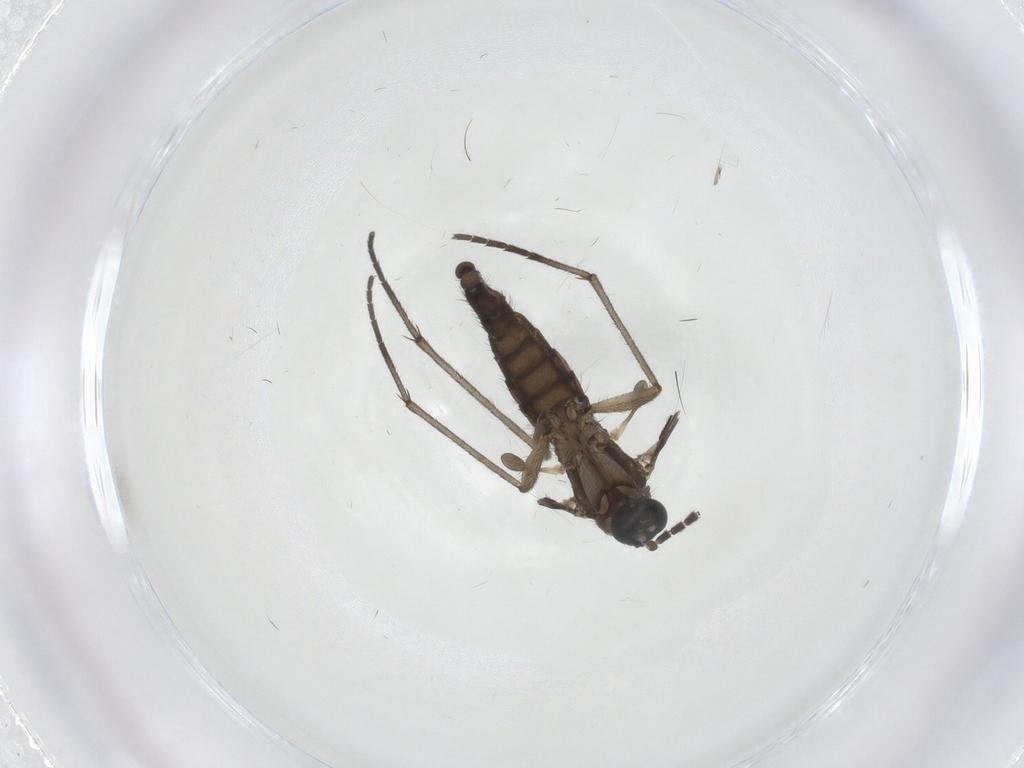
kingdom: Animalia
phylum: Arthropoda
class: Insecta
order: Diptera
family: Sciaridae
